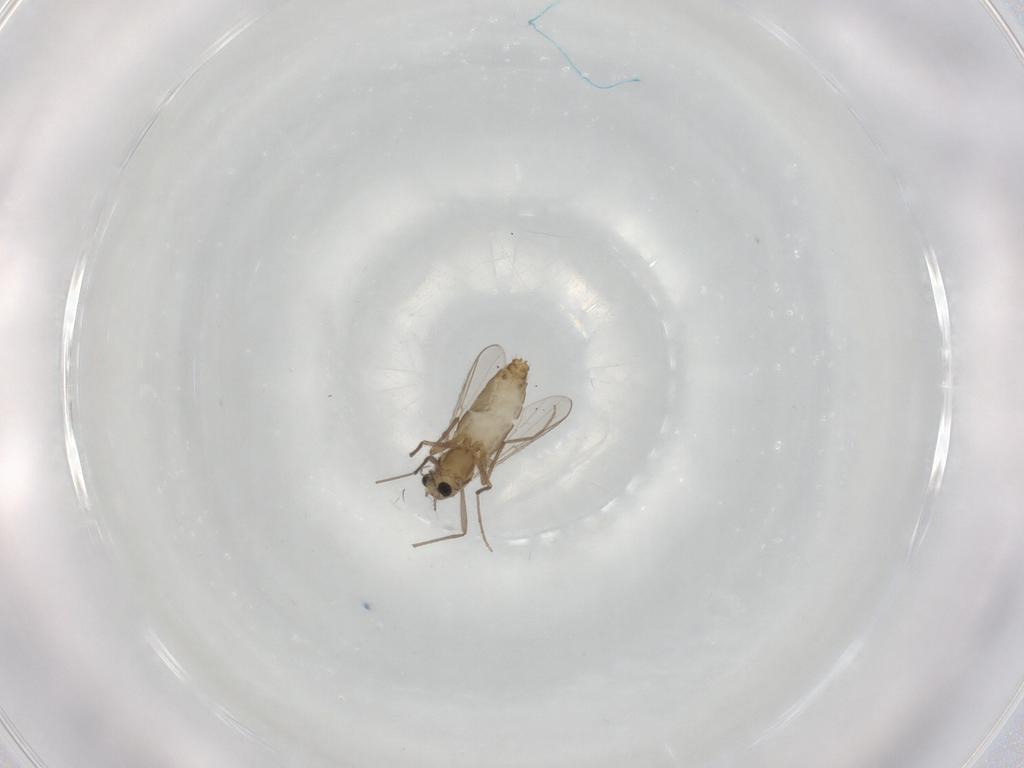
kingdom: Animalia
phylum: Arthropoda
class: Insecta
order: Diptera
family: Chironomidae
